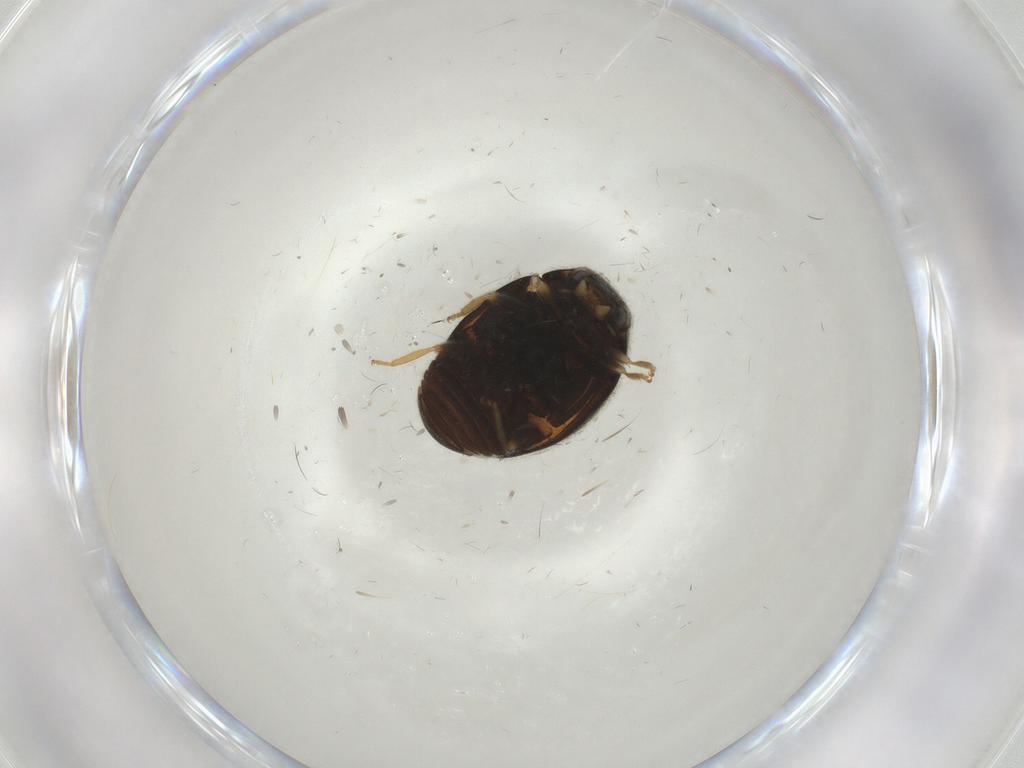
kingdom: Animalia
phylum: Arthropoda
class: Insecta
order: Coleoptera
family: Coccinellidae
